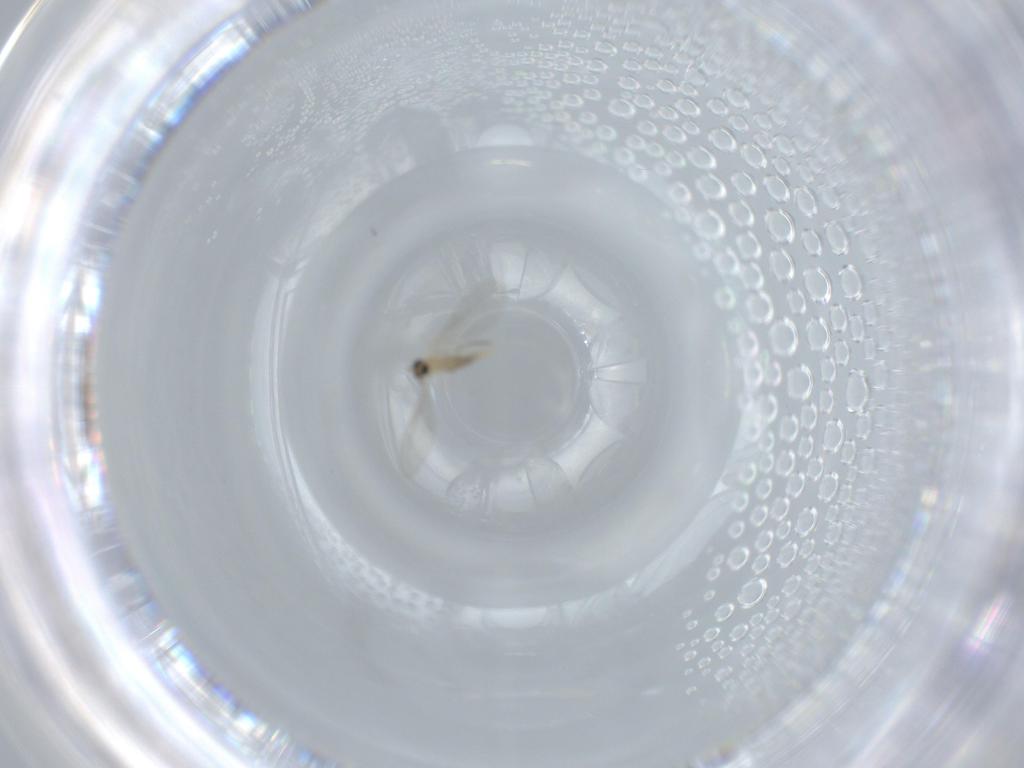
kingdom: Animalia
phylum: Arthropoda
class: Insecta
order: Diptera
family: Cecidomyiidae
